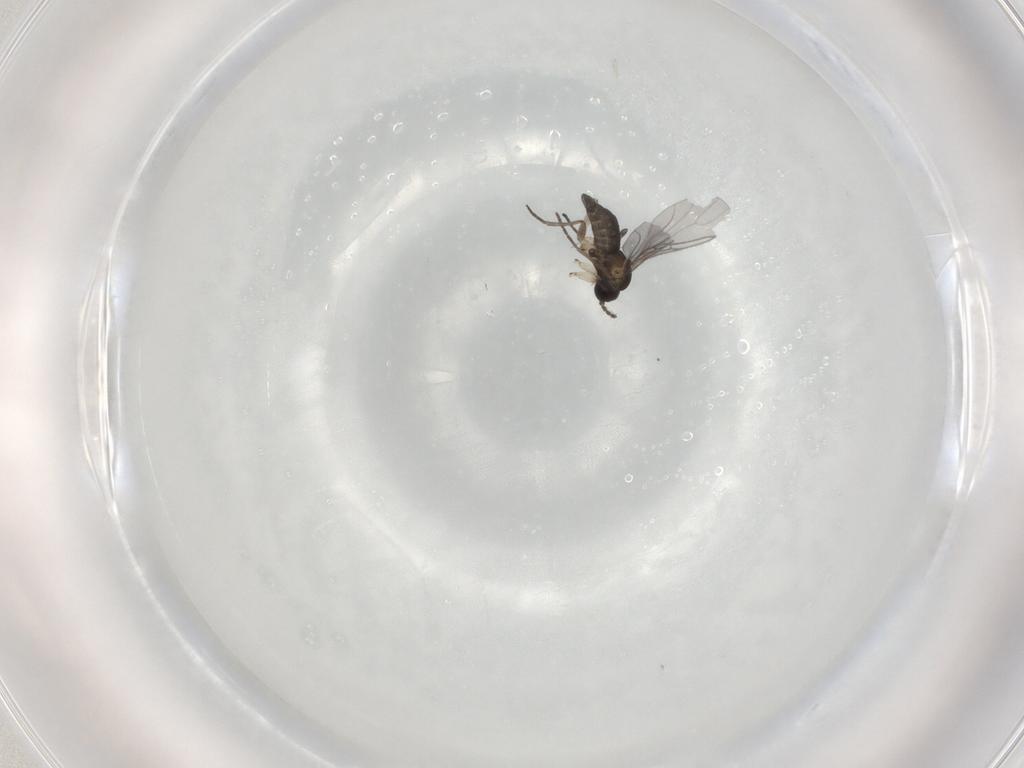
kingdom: Animalia
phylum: Arthropoda
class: Insecta
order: Diptera
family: Sciaridae
